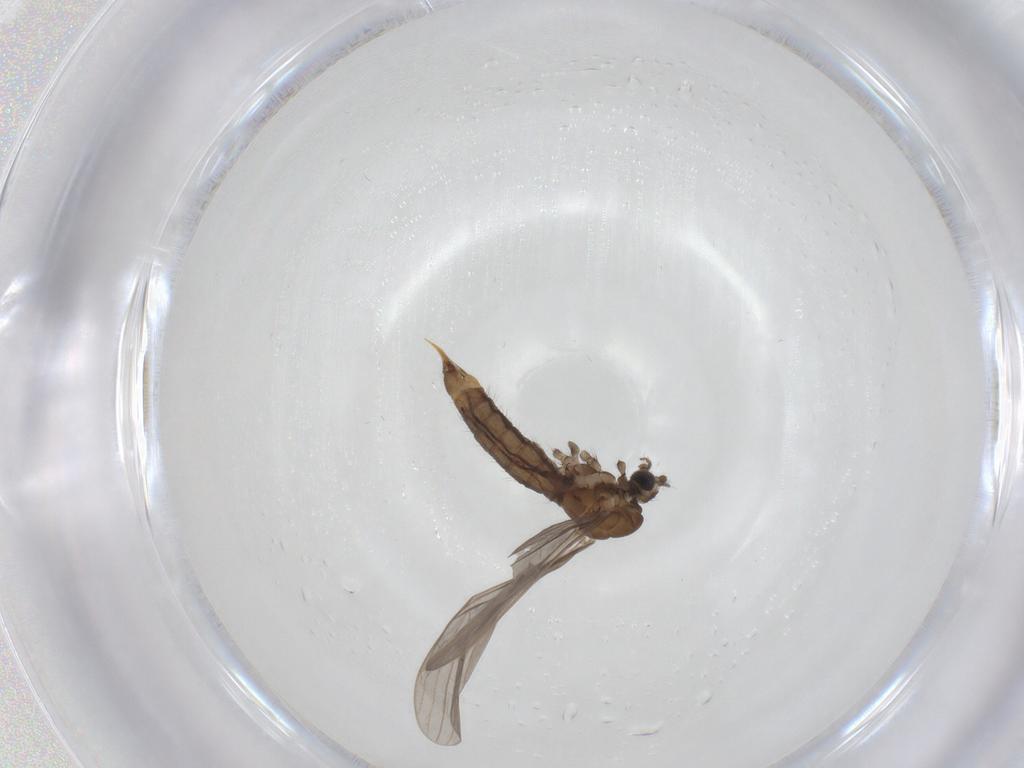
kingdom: Animalia
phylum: Arthropoda
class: Insecta
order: Diptera
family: Limoniidae
